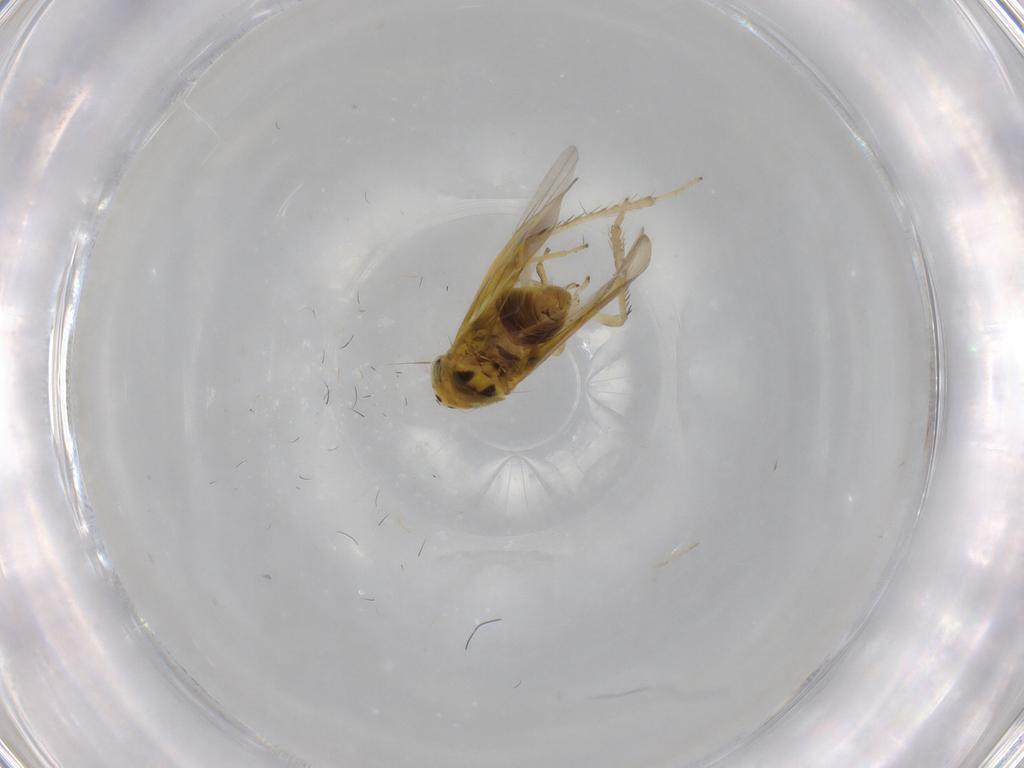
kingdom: Animalia
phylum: Arthropoda
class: Insecta
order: Hemiptera
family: Cicadellidae
